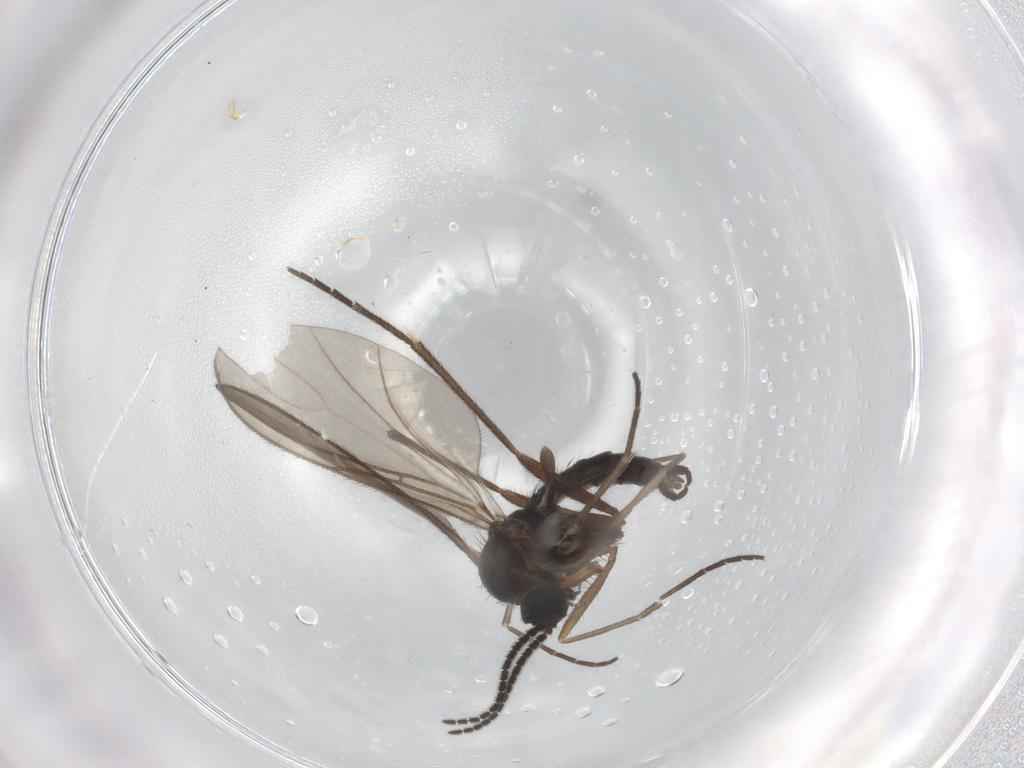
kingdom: Animalia
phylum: Arthropoda
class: Insecta
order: Diptera
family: Sciaridae
